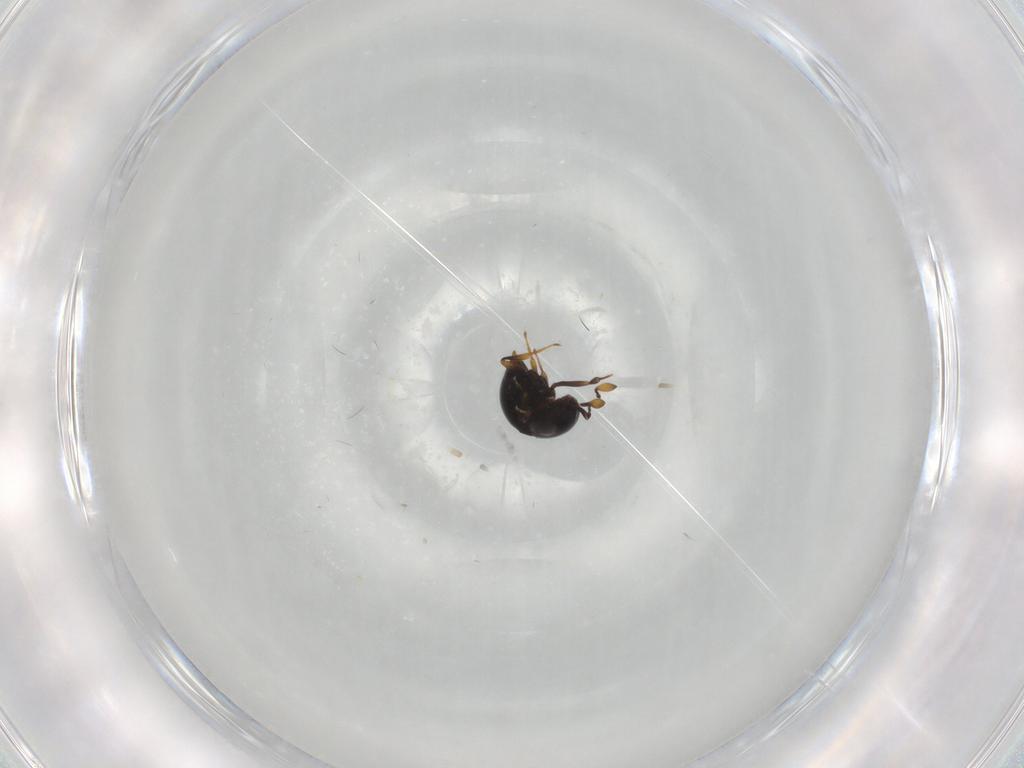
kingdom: Animalia
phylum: Arthropoda
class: Insecta
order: Hymenoptera
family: Scelionidae
